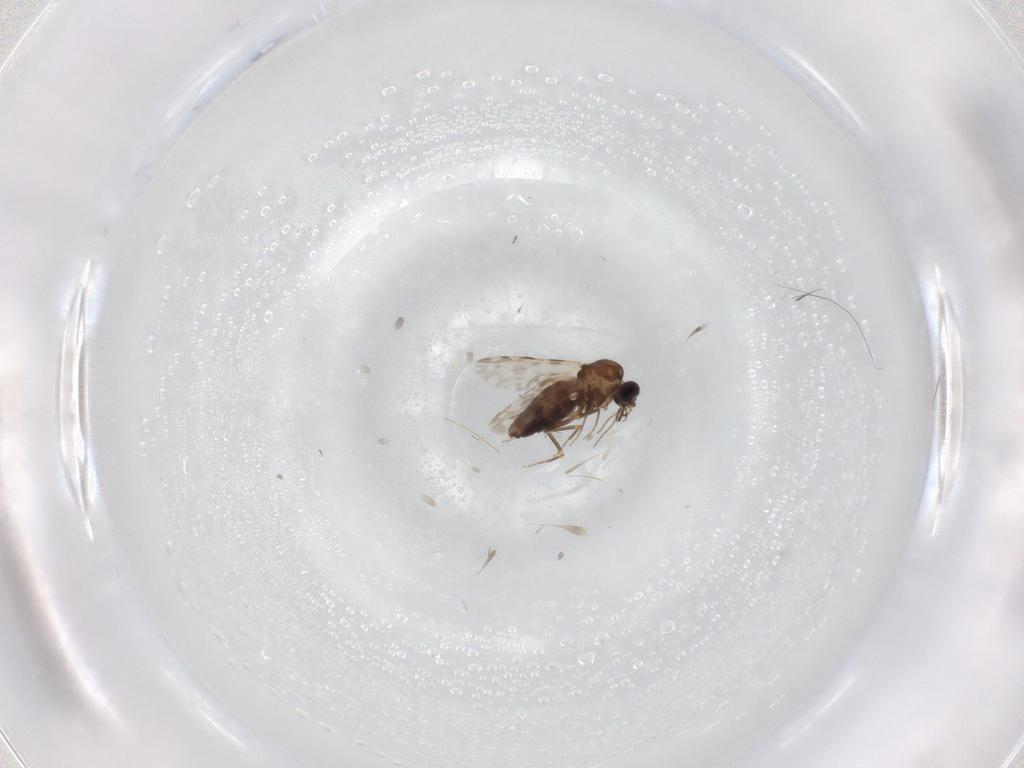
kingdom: Animalia
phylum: Arthropoda
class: Insecta
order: Diptera
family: Ceratopogonidae
